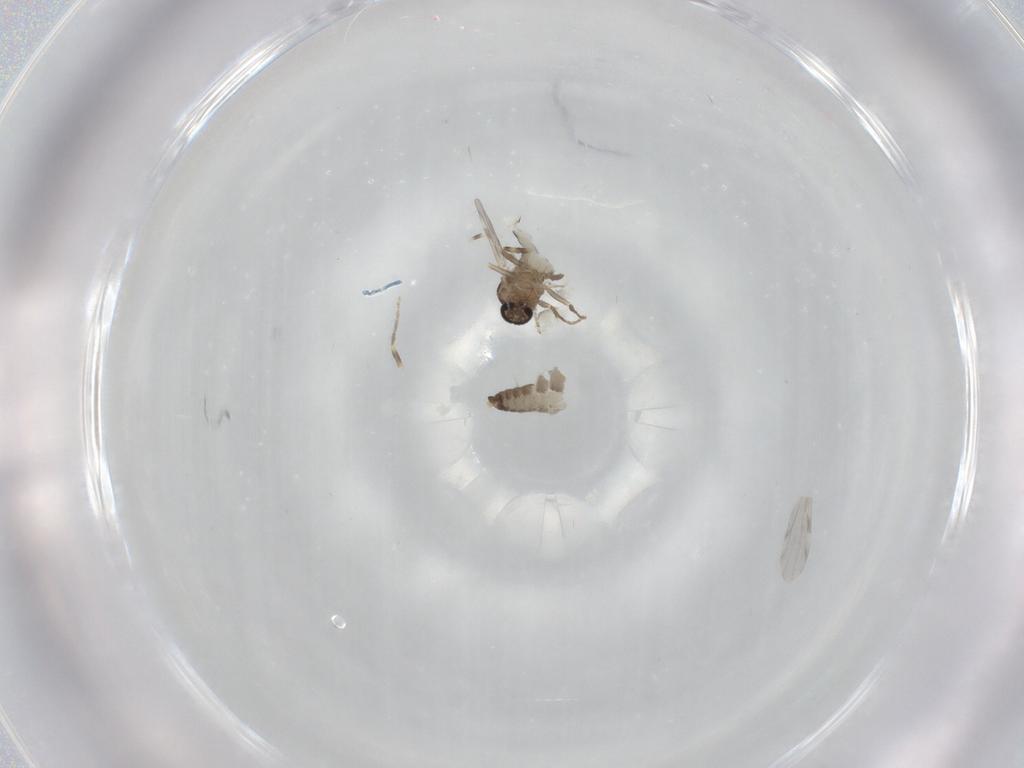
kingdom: Animalia
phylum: Arthropoda
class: Insecta
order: Diptera
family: Ceratopogonidae
